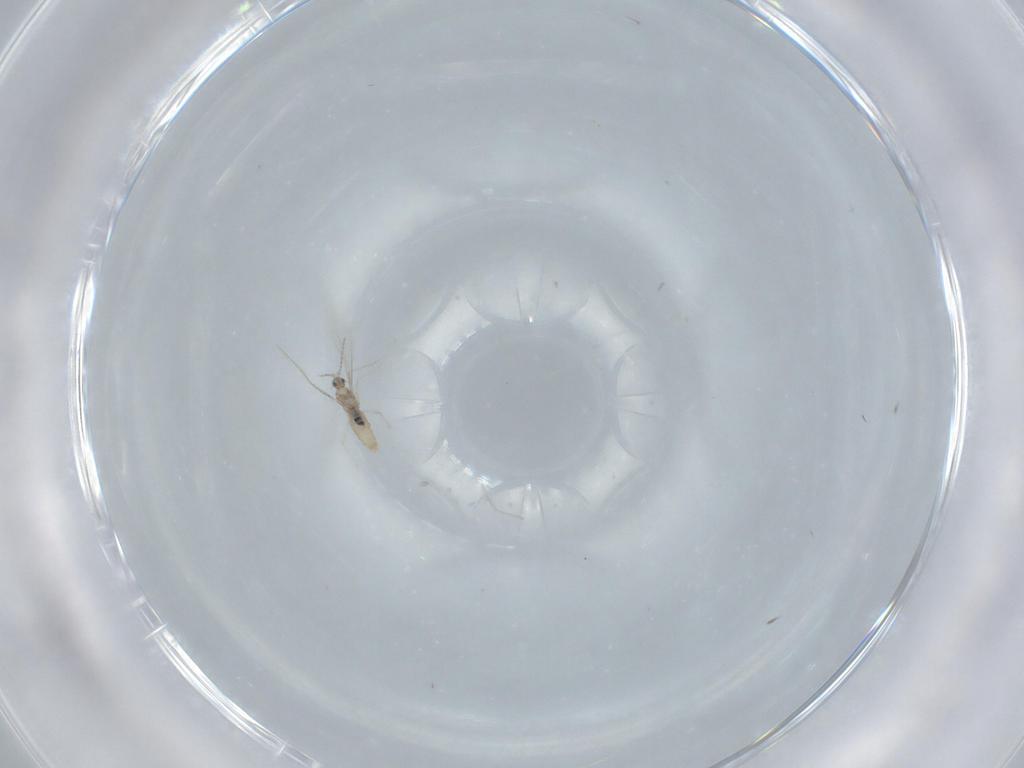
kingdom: Animalia
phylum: Arthropoda
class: Insecta
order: Diptera
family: Cecidomyiidae
